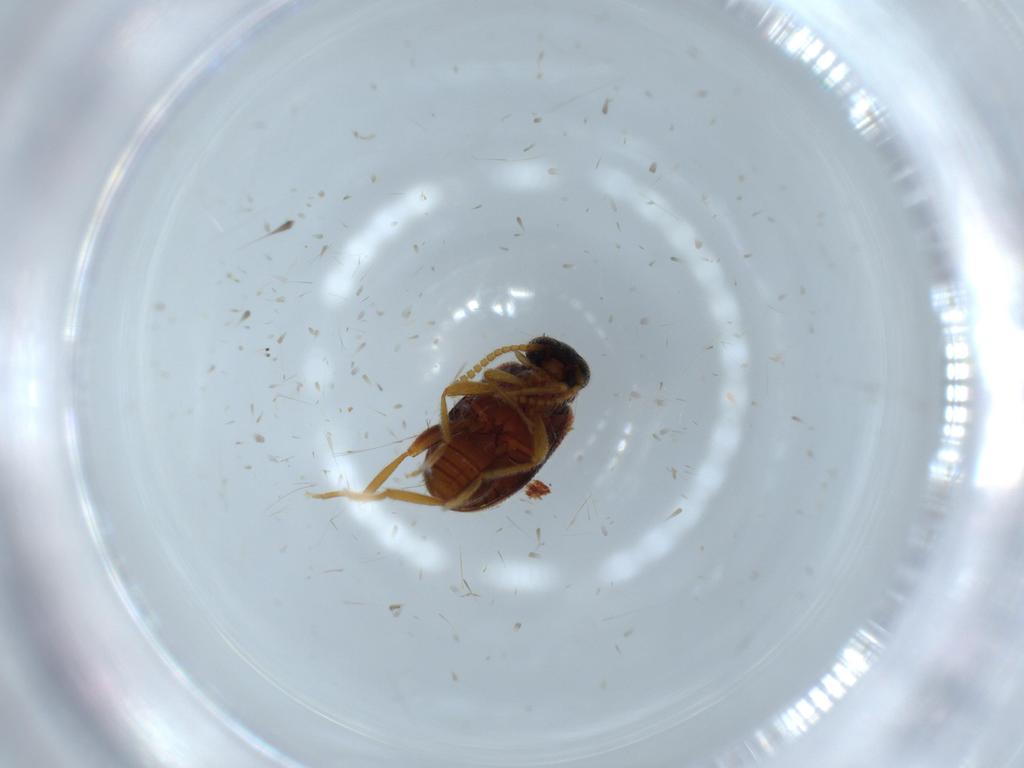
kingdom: Animalia
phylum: Arthropoda
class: Insecta
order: Coleoptera
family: Aderidae
